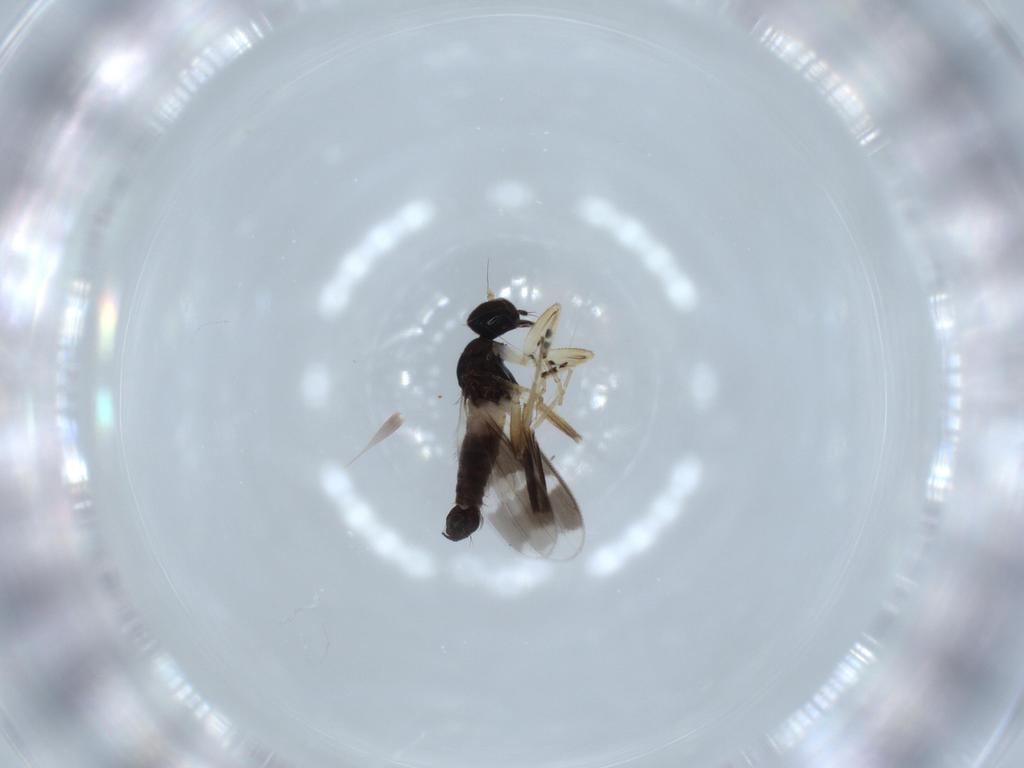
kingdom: Animalia
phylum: Arthropoda
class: Insecta
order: Diptera
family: Hybotidae
